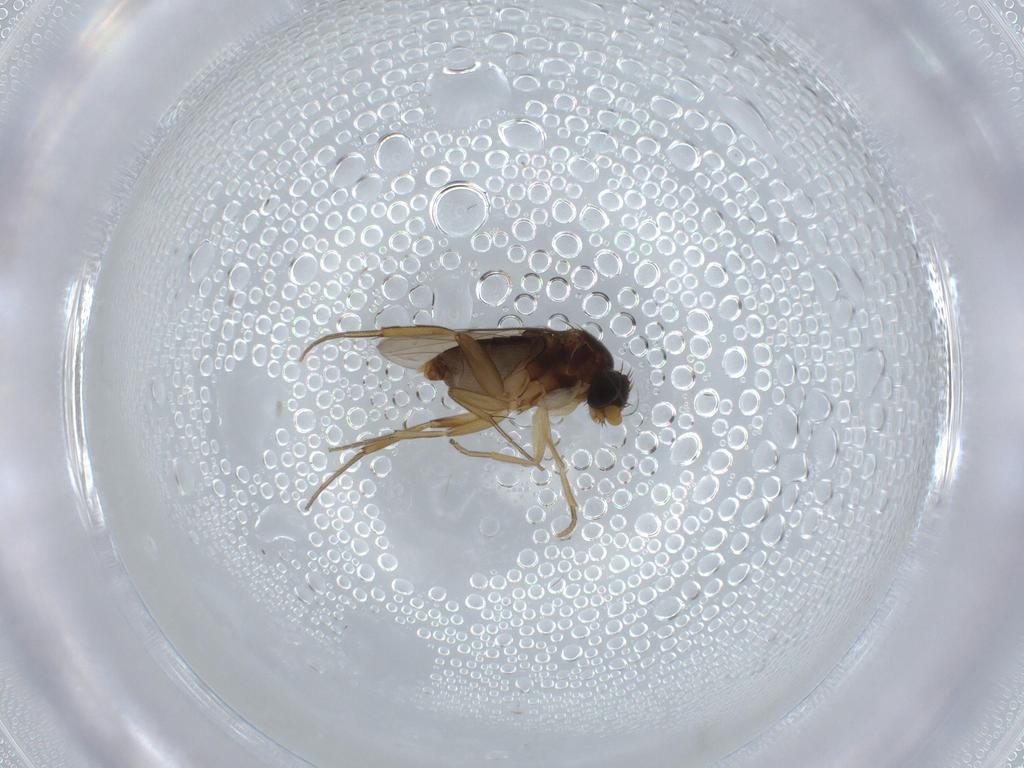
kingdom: Animalia
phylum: Arthropoda
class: Insecta
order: Diptera
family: Phoridae
